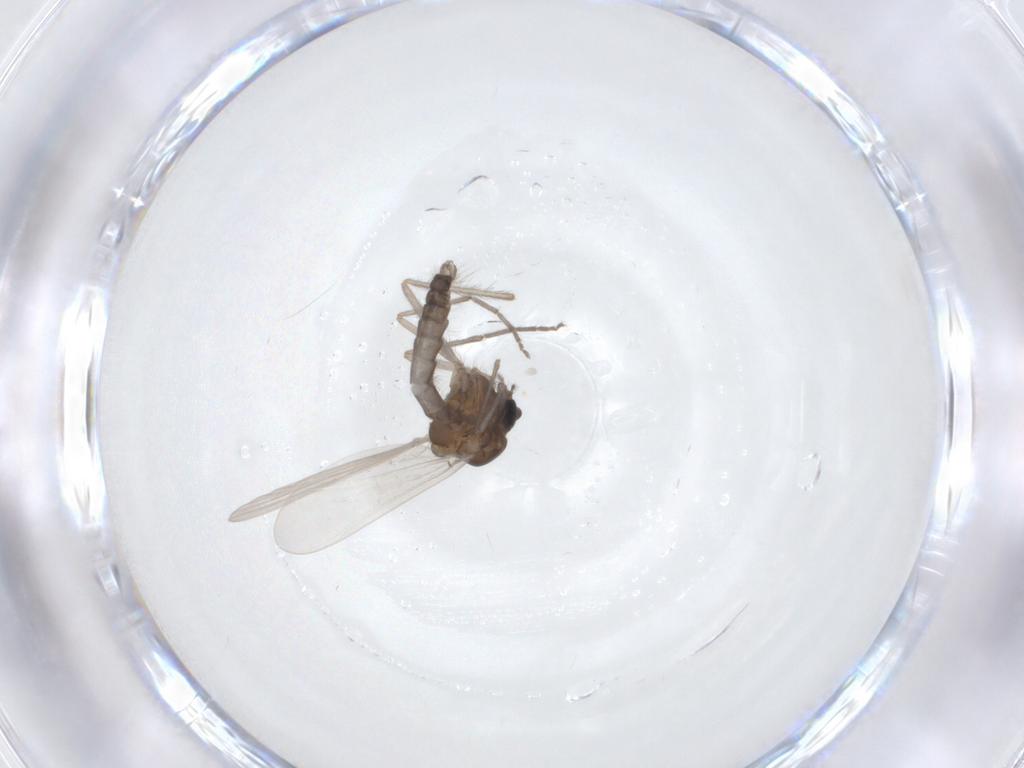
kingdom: Animalia
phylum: Arthropoda
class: Insecta
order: Diptera
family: Chironomidae
